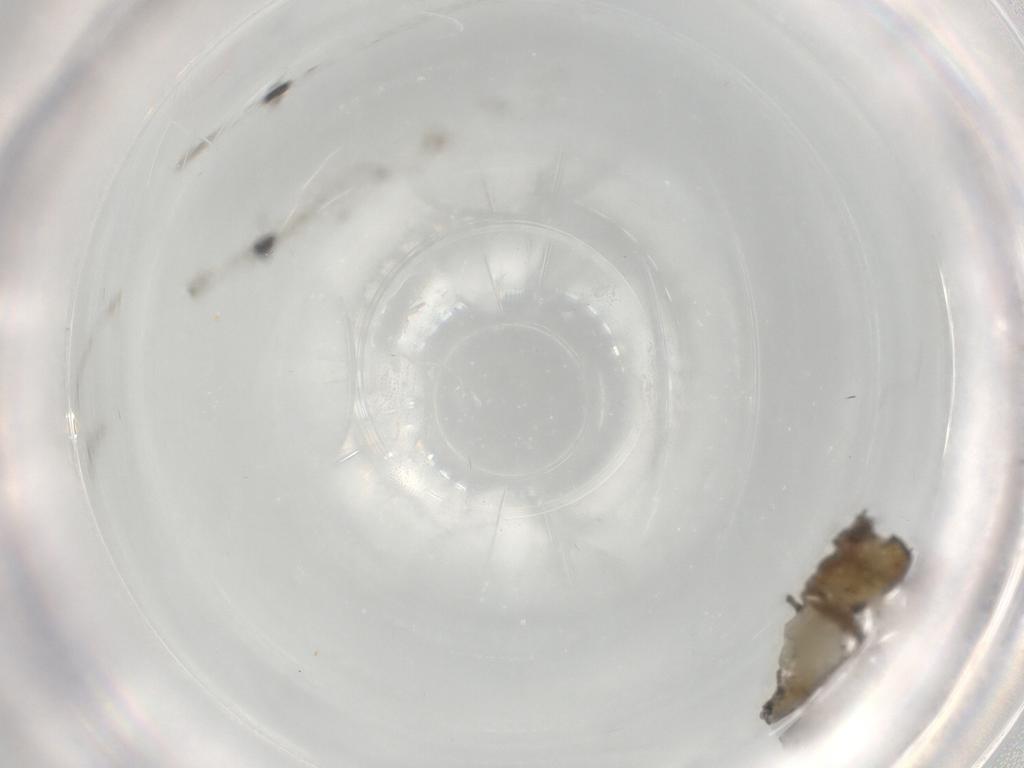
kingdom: Animalia
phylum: Arthropoda
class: Insecta
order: Diptera
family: Chironomidae
